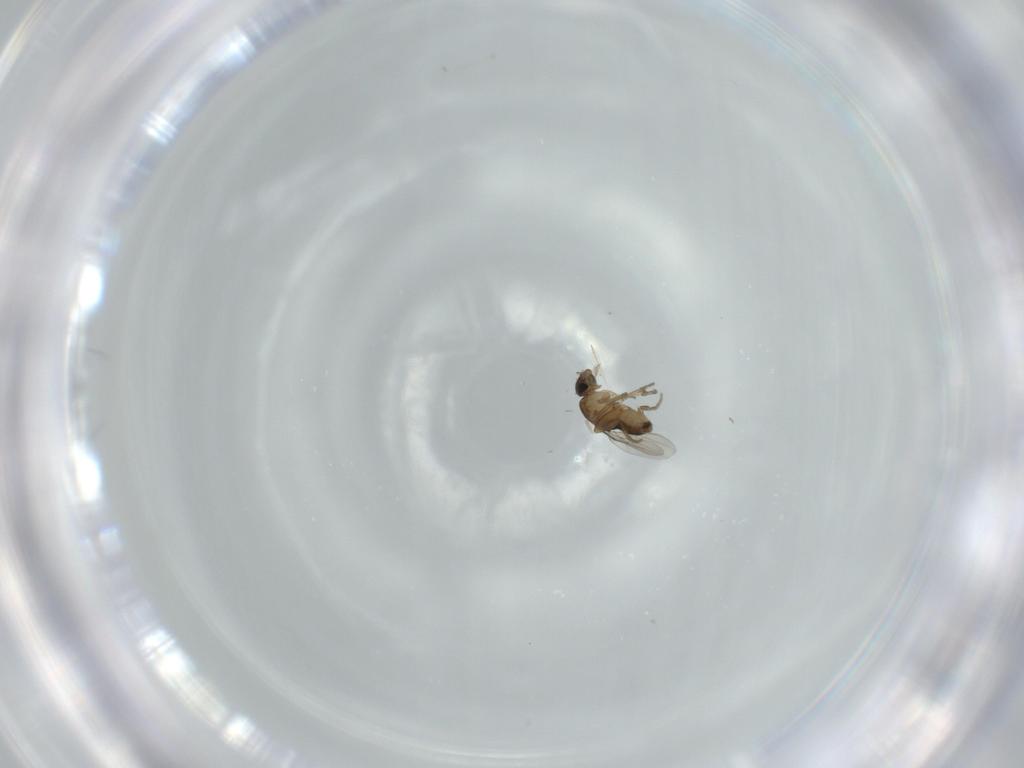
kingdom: Animalia
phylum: Arthropoda
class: Insecta
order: Diptera
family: Phoridae
